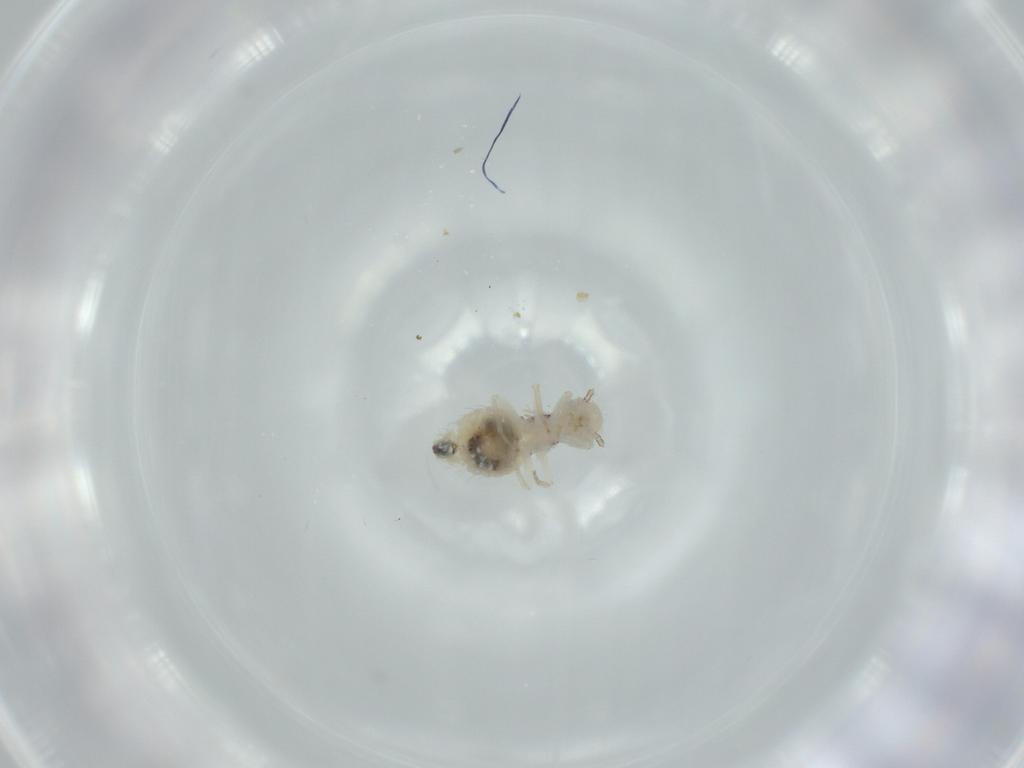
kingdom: Animalia
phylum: Arthropoda
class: Insecta
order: Psocodea
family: Pseudocaeciliidae
